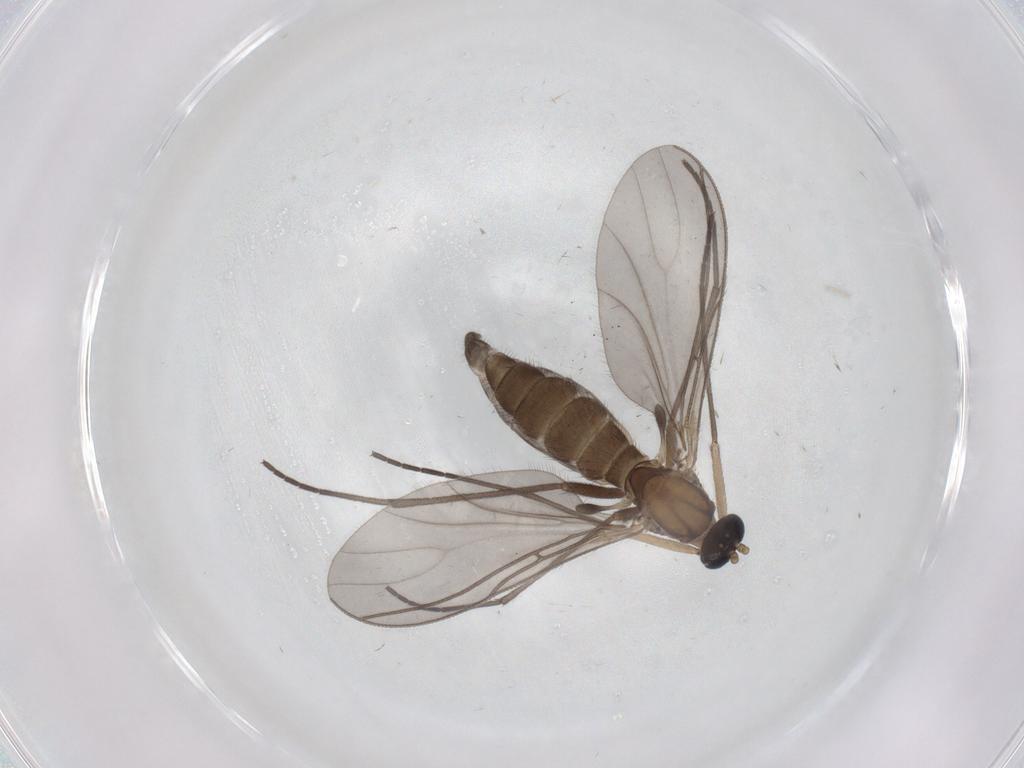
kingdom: Animalia
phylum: Arthropoda
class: Insecta
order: Diptera
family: Sciaridae
